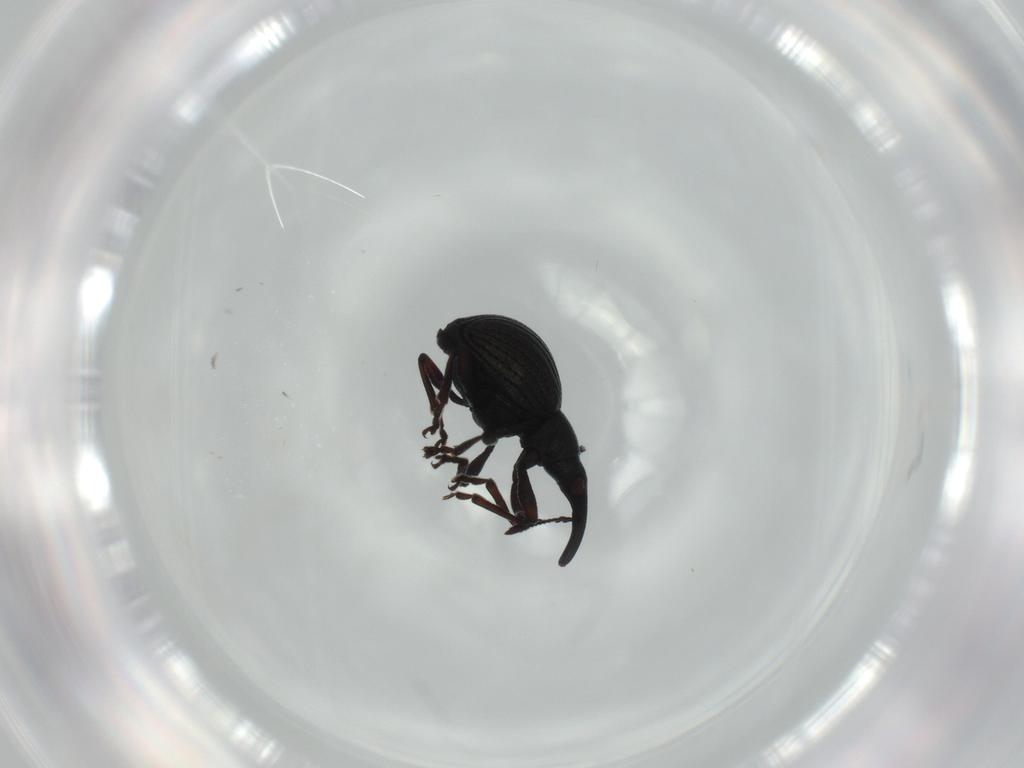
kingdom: Animalia
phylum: Arthropoda
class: Insecta
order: Coleoptera
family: Brentidae
